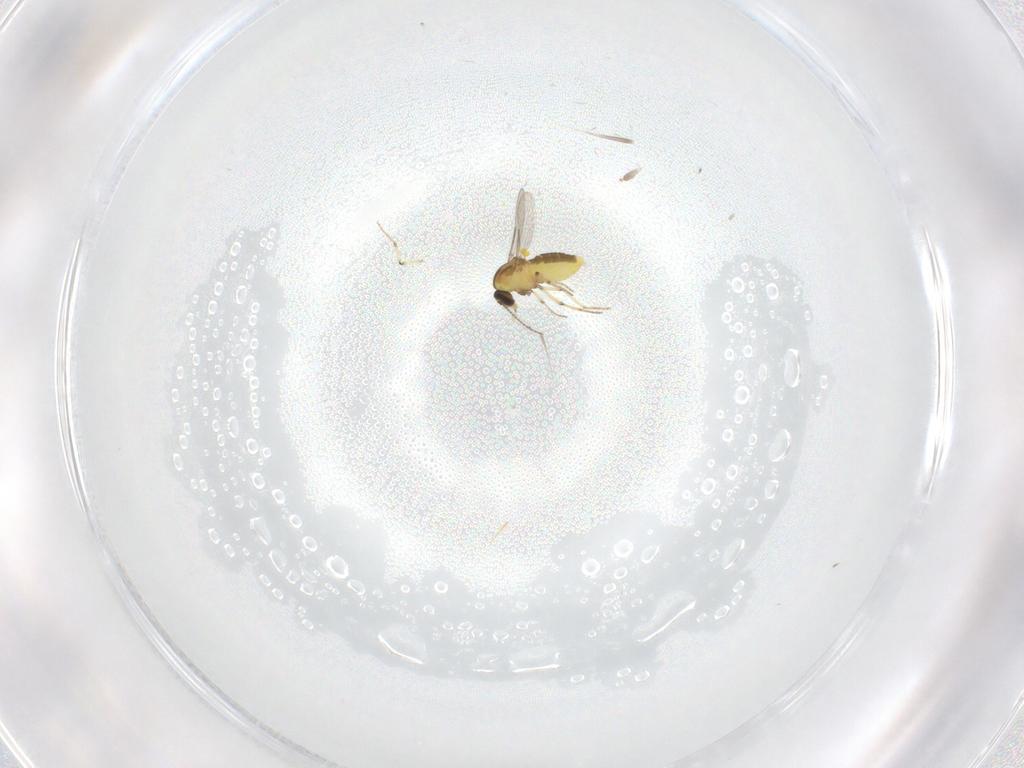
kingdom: Animalia
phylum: Arthropoda
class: Insecta
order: Diptera
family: Ceratopogonidae
